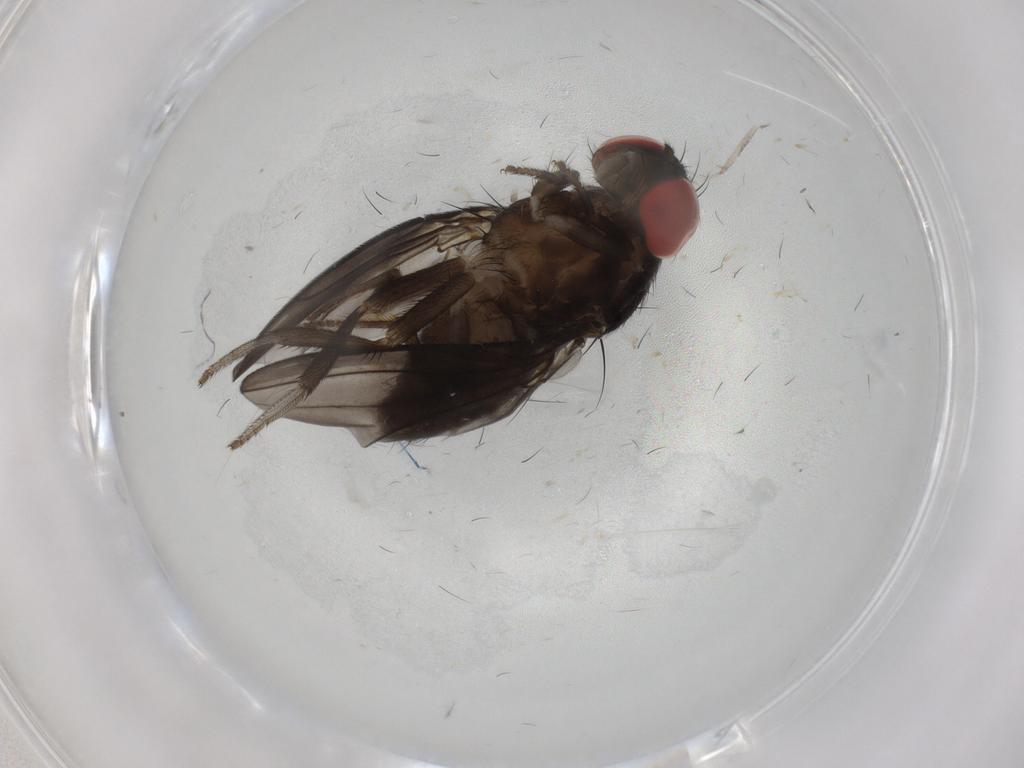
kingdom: Animalia
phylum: Arthropoda
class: Insecta
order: Diptera
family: Drosophilidae
